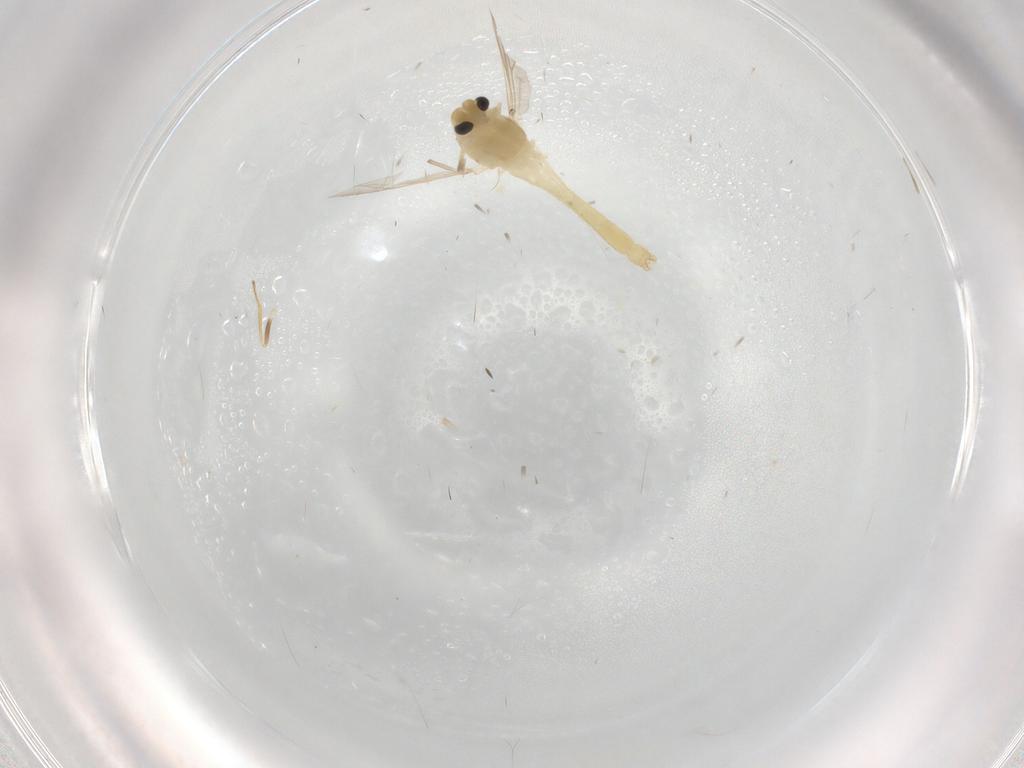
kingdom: Animalia
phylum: Arthropoda
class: Insecta
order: Diptera
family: Chironomidae
